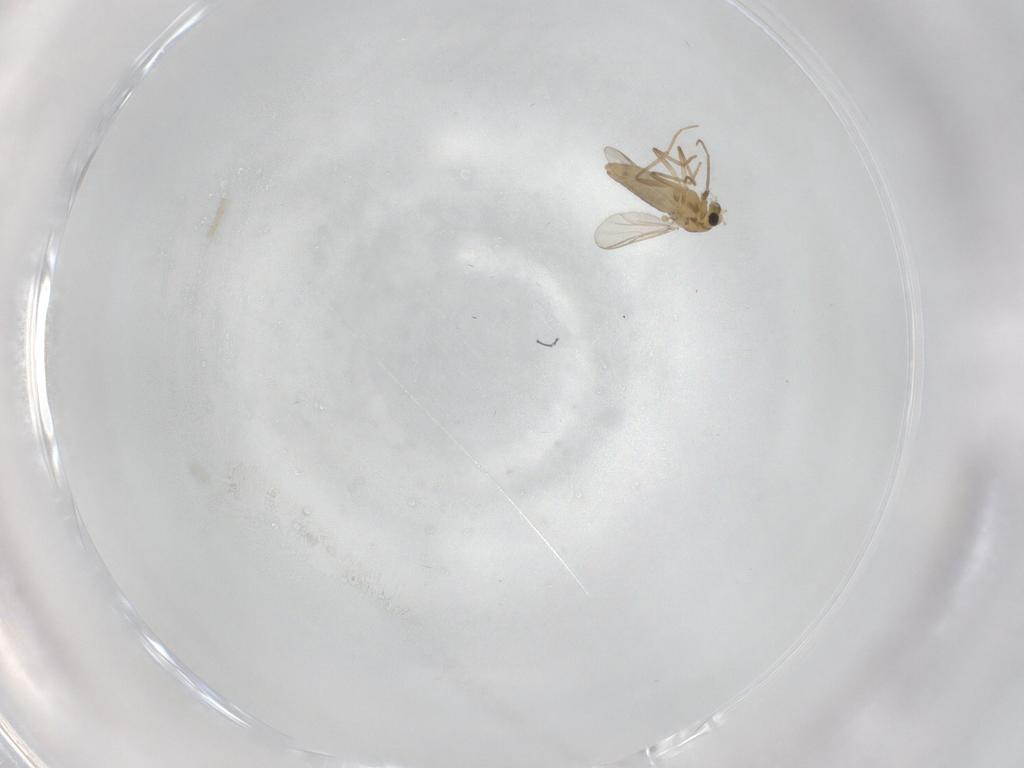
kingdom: Animalia
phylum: Arthropoda
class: Insecta
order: Diptera
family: Chironomidae
